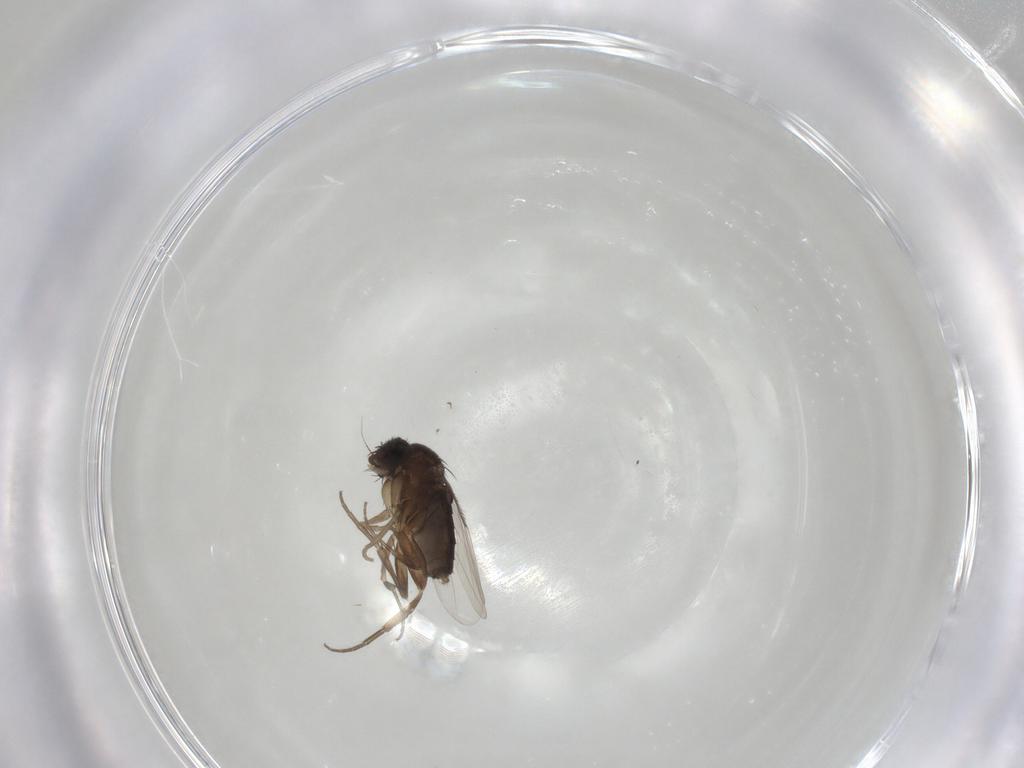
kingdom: Animalia
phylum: Arthropoda
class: Insecta
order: Diptera
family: Phoridae
